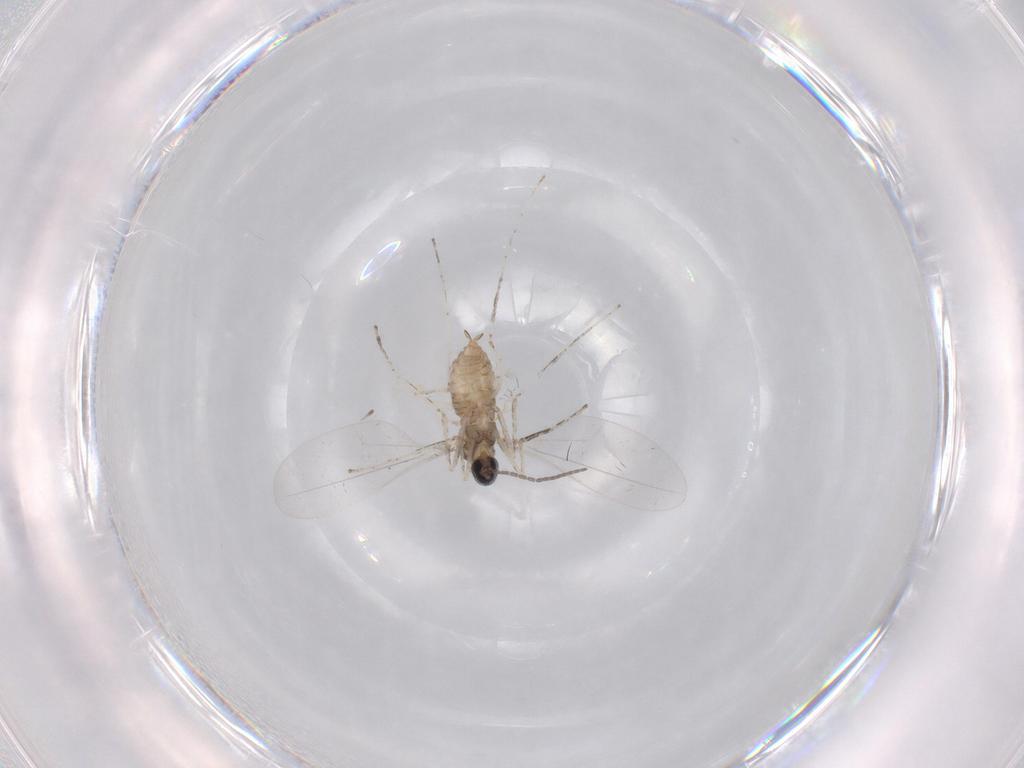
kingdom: Animalia
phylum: Arthropoda
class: Insecta
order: Diptera
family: Cecidomyiidae
